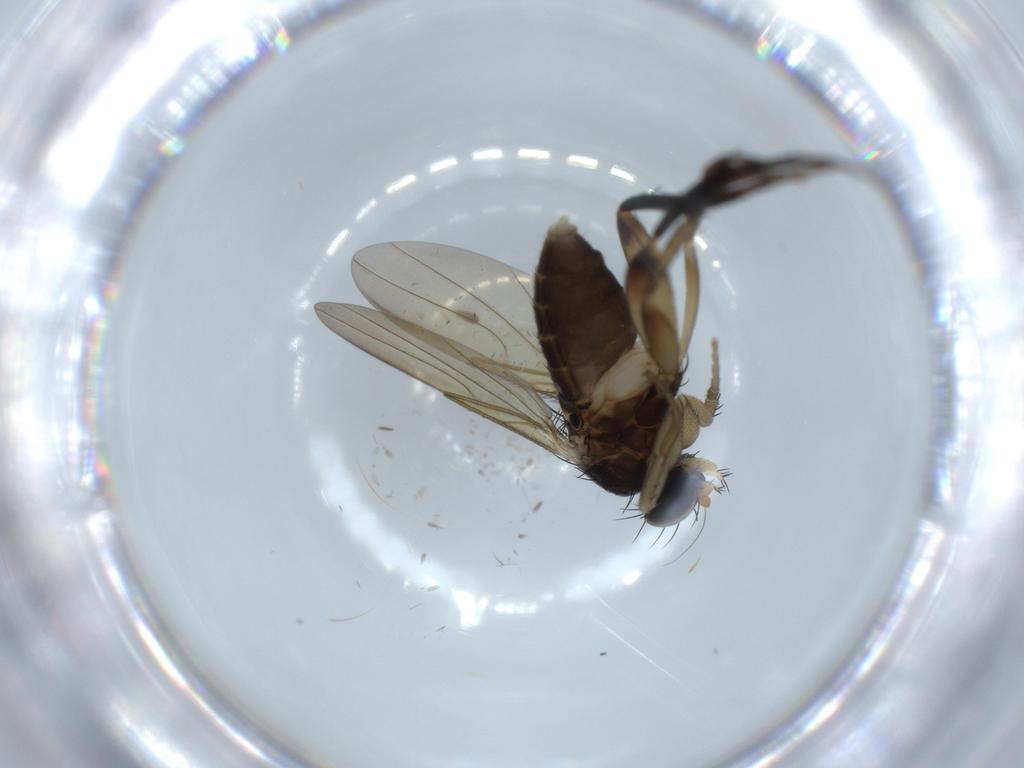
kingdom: Animalia
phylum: Arthropoda
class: Insecta
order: Diptera
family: Phoridae
